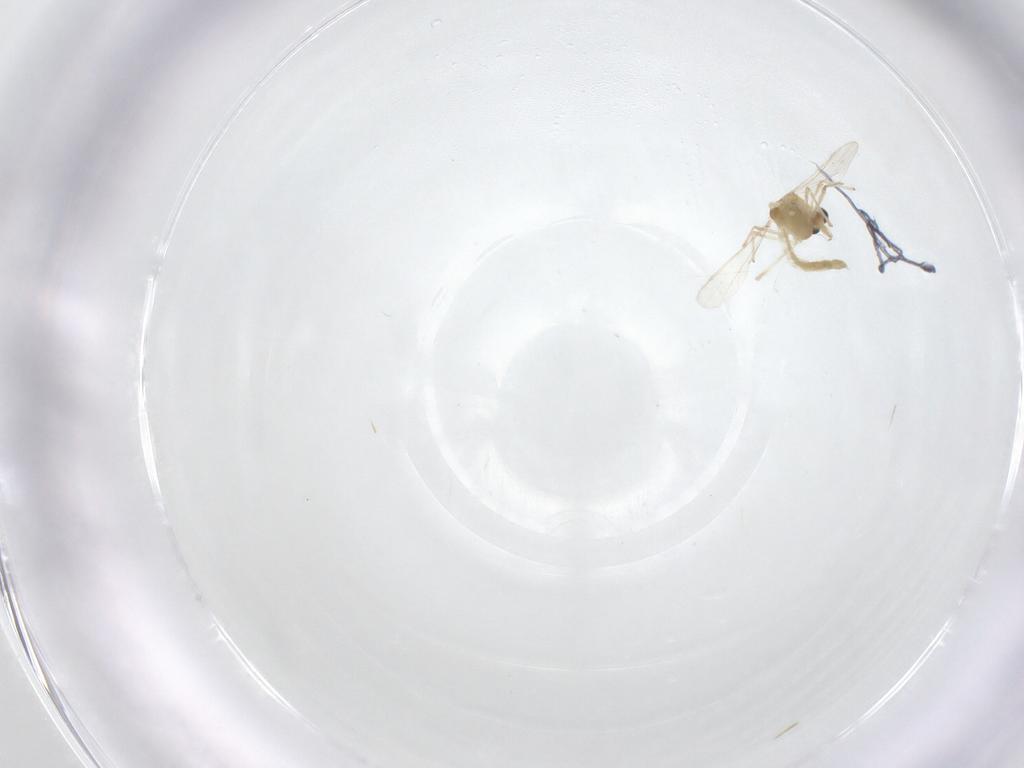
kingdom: Animalia
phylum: Arthropoda
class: Insecta
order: Diptera
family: Chironomidae
